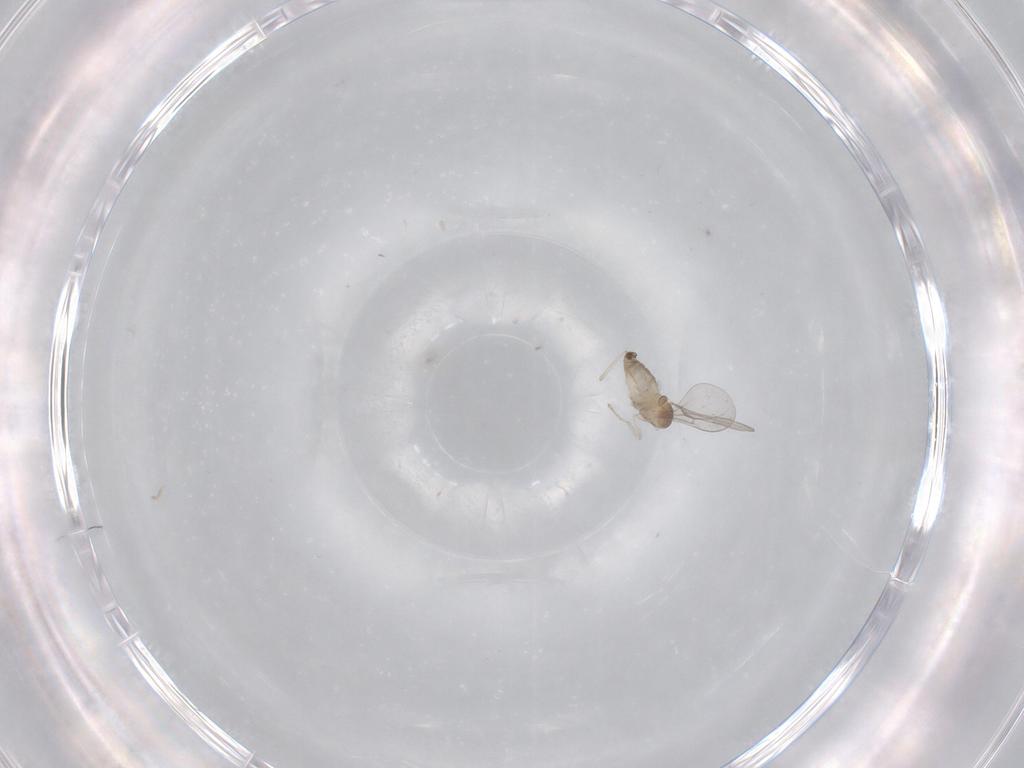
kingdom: Animalia
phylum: Arthropoda
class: Insecta
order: Diptera
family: Cecidomyiidae
